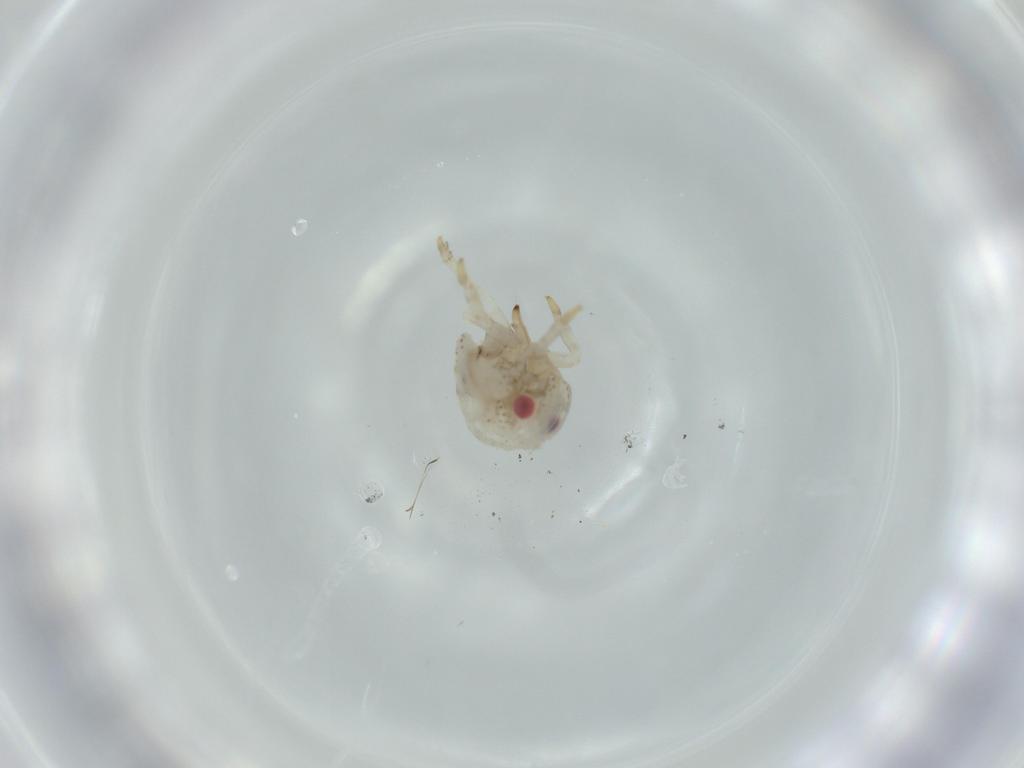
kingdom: Animalia
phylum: Arthropoda
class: Insecta
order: Hemiptera
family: Acanaloniidae
